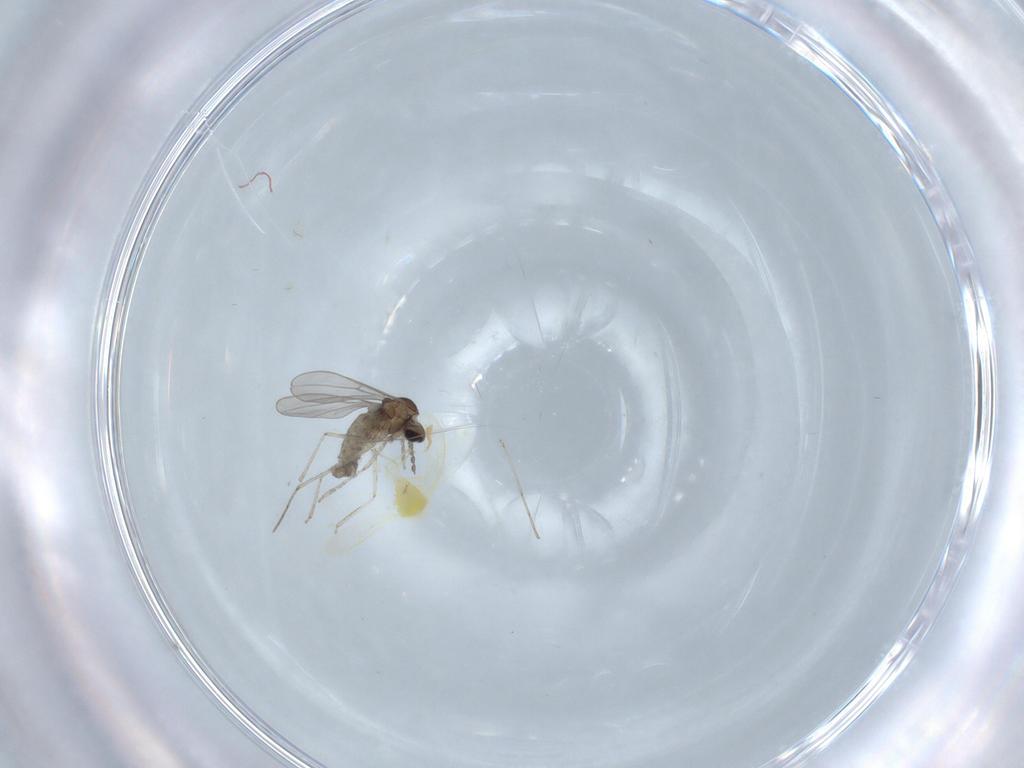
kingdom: Animalia
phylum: Arthropoda
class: Insecta
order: Diptera
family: Cecidomyiidae
